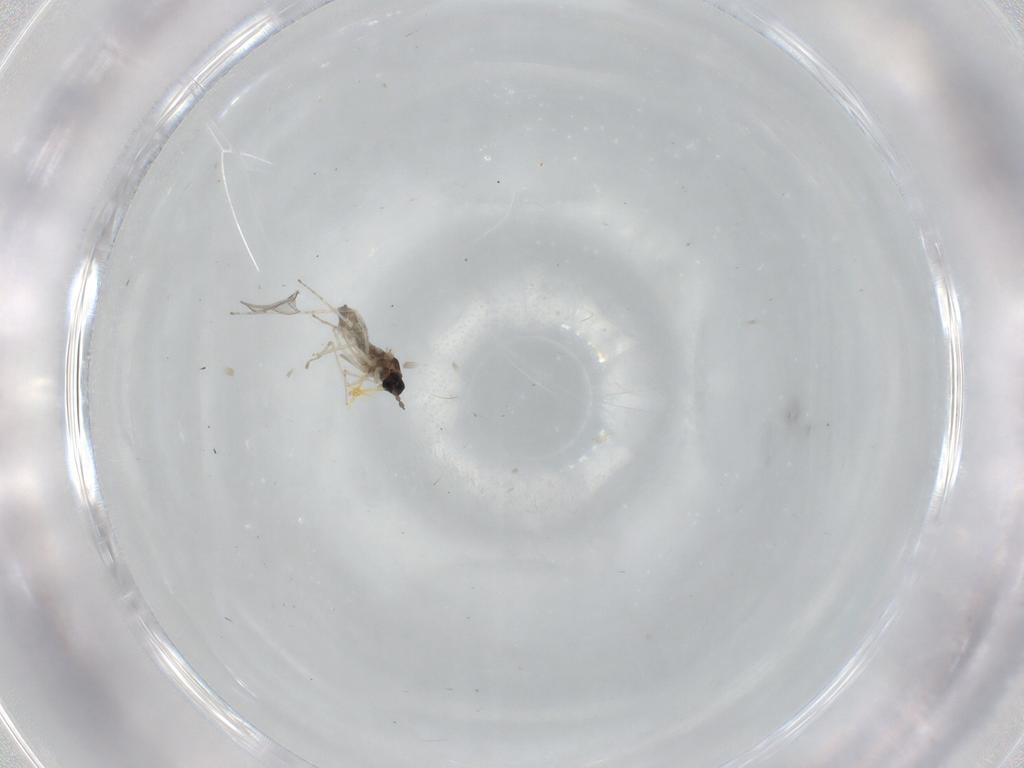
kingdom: Animalia
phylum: Arthropoda
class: Insecta
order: Diptera
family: Cecidomyiidae
